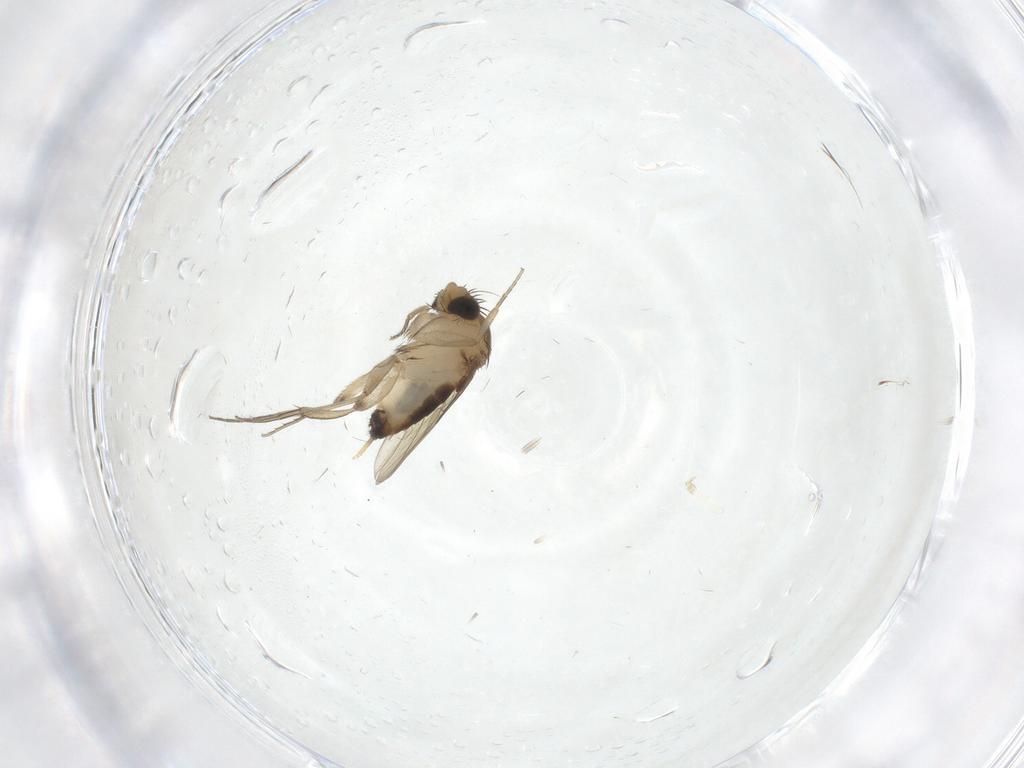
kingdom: Animalia
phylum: Arthropoda
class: Insecta
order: Diptera
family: Phoridae
